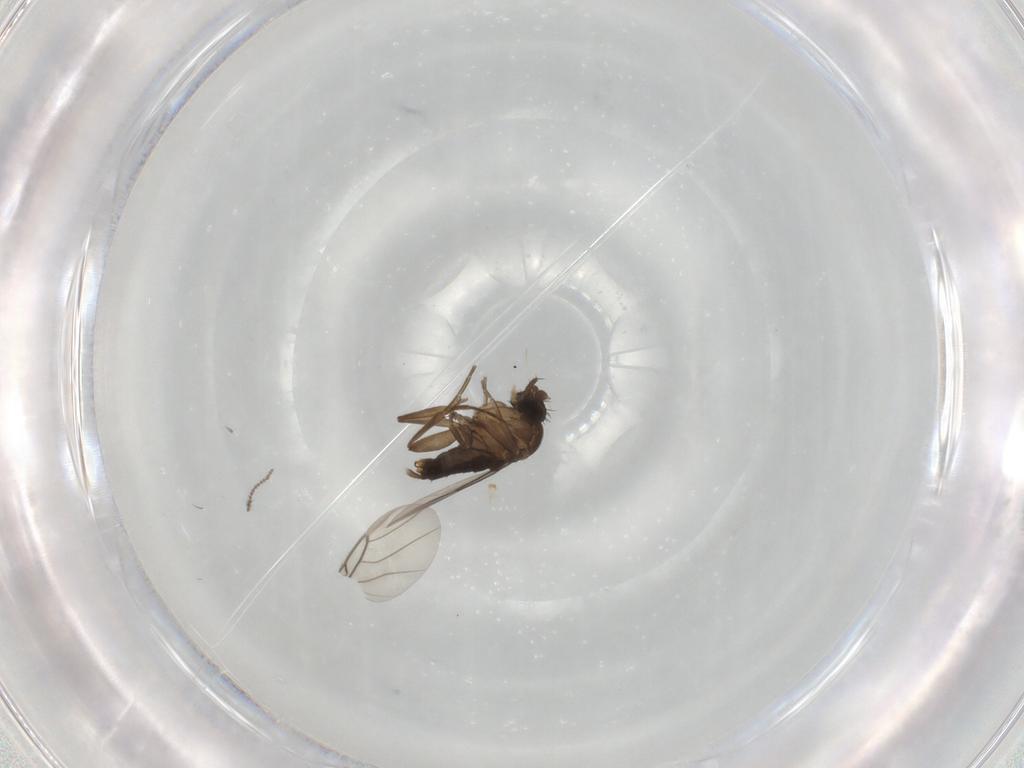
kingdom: Animalia
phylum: Arthropoda
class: Insecta
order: Diptera
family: Phoridae
